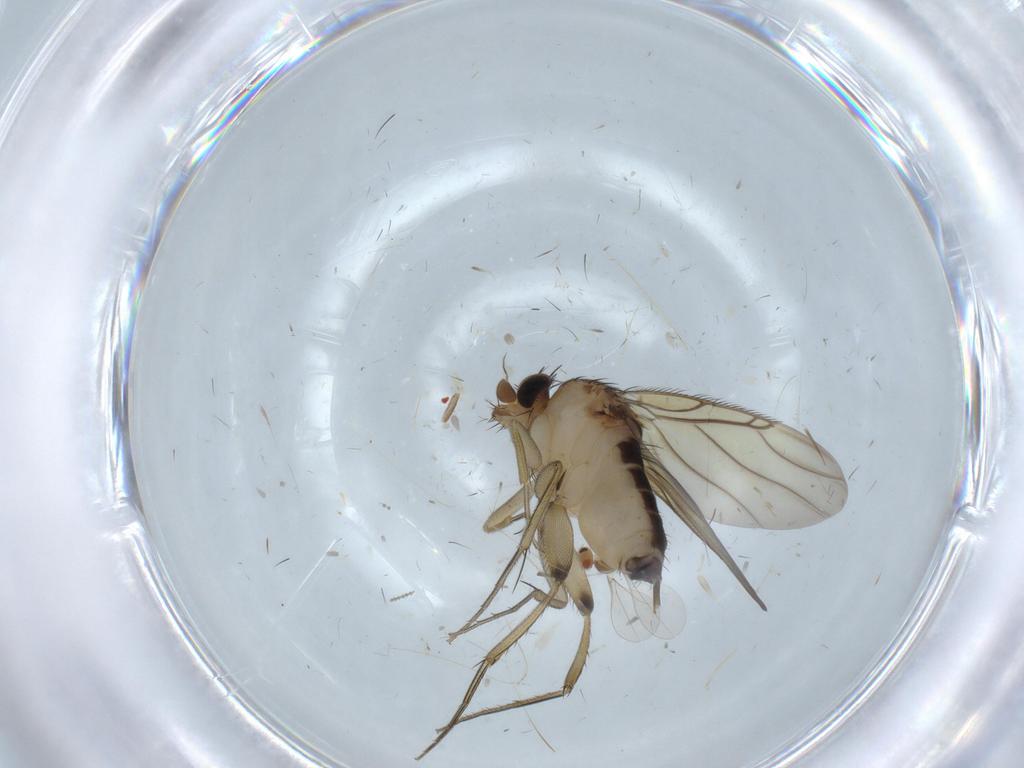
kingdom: Animalia
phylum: Arthropoda
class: Insecta
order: Diptera
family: Phoridae
